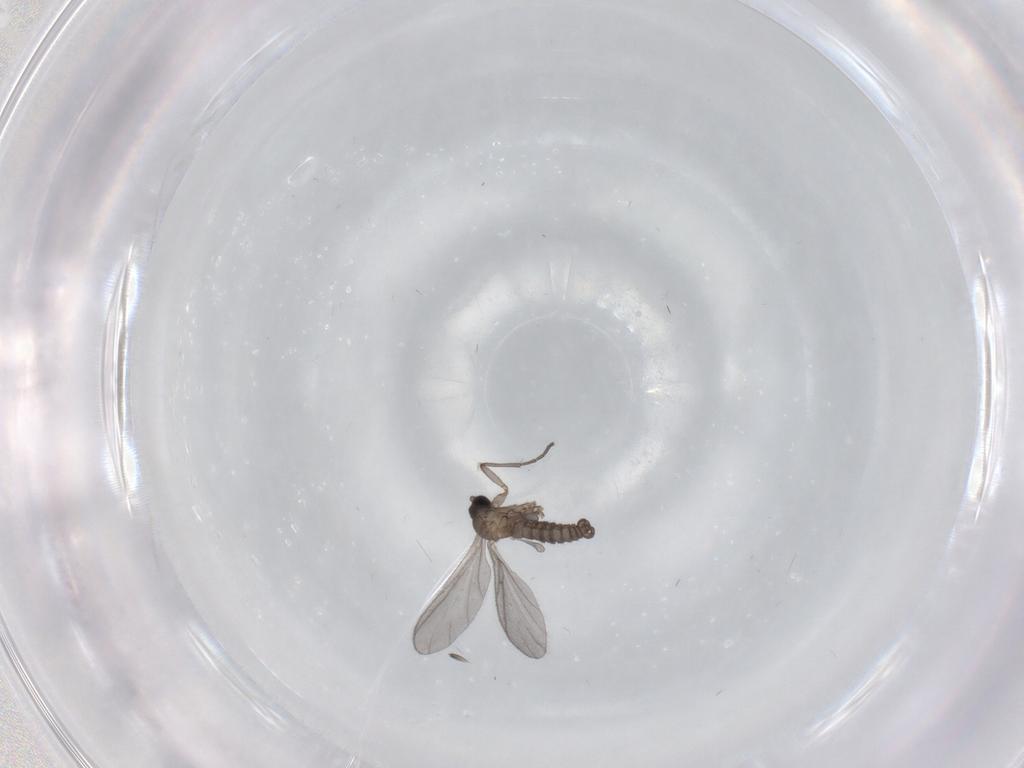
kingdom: Animalia
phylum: Arthropoda
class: Insecta
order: Diptera
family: Sciaridae
